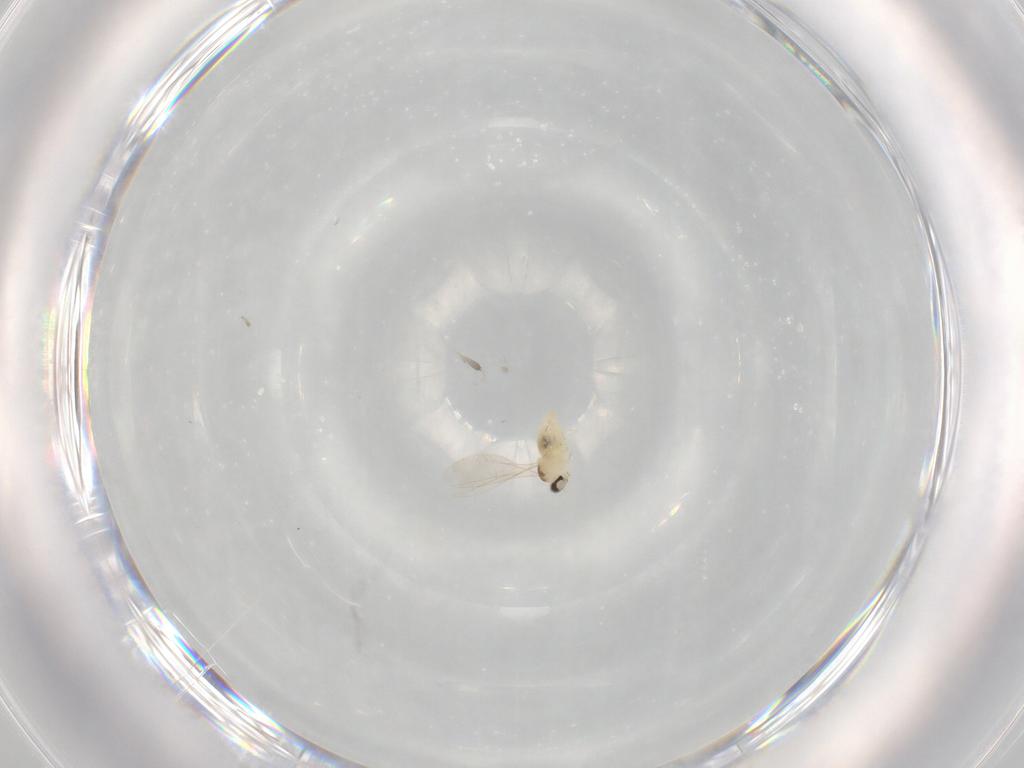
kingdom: Animalia
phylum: Arthropoda
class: Insecta
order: Diptera
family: Cecidomyiidae
